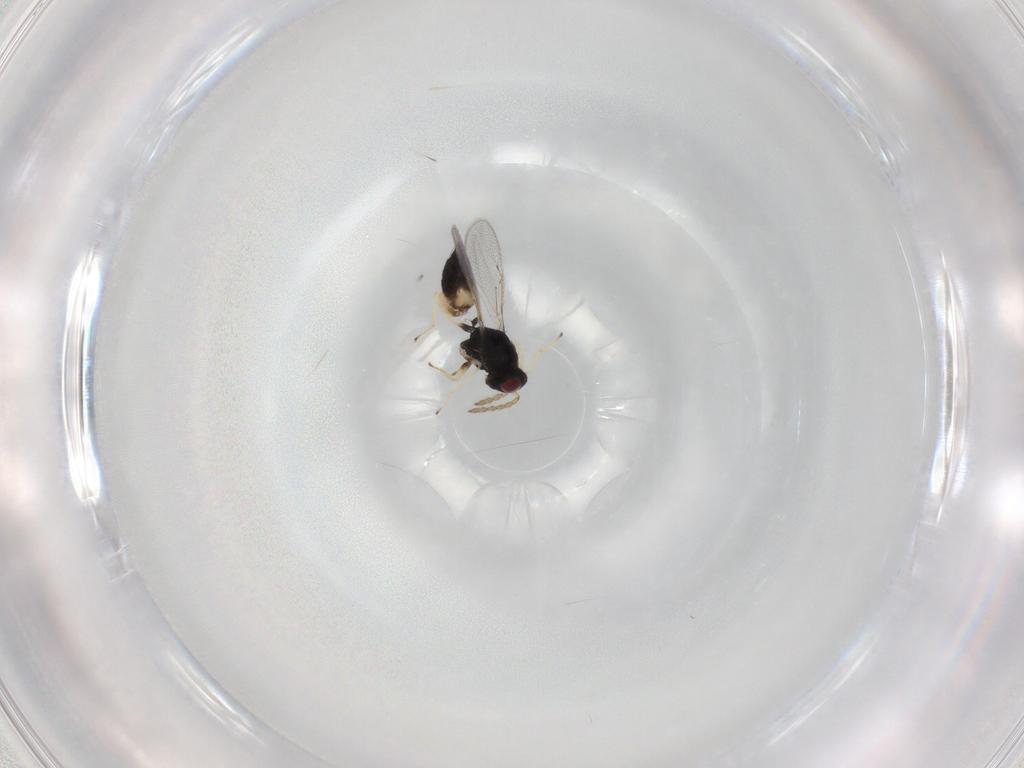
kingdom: Animalia
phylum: Arthropoda
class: Insecta
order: Hymenoptera
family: Eulophidae
